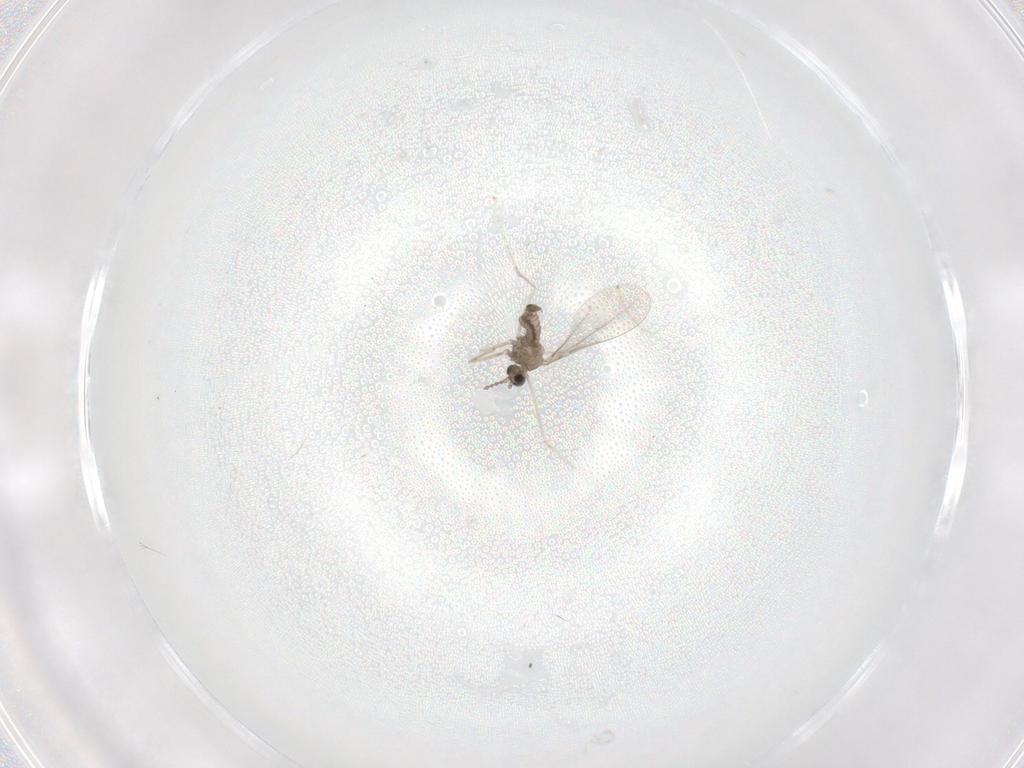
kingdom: Animalia
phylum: Arthropoda
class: Insecta
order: Diptera
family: Cecidomyiidae
